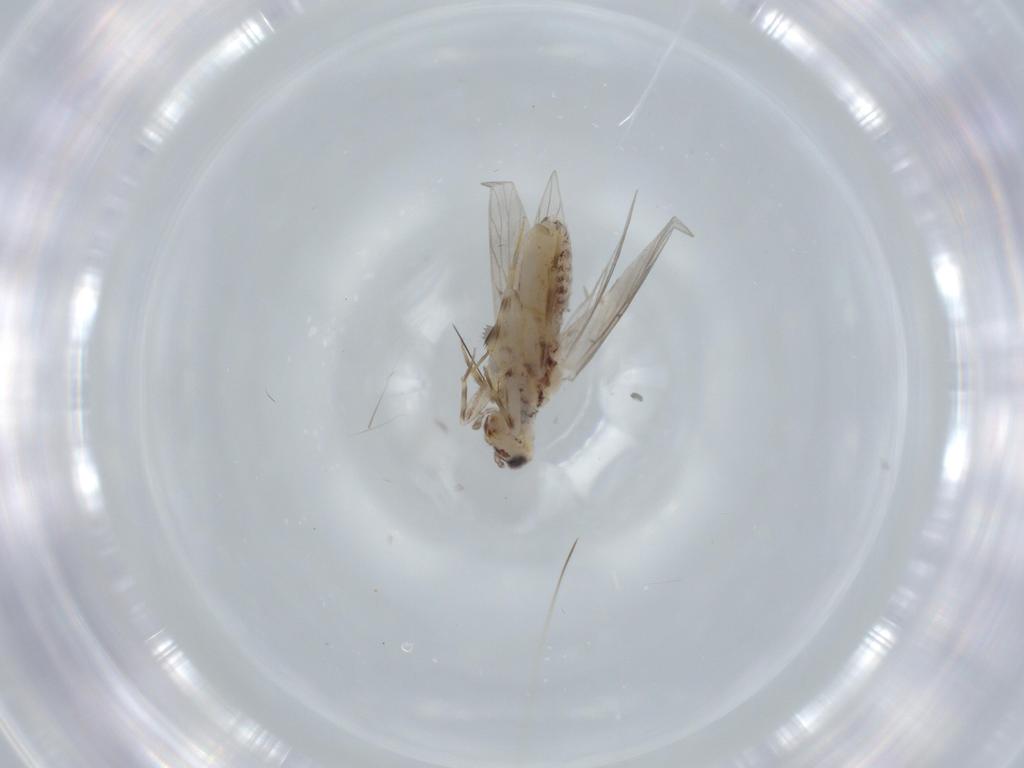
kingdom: Animalia
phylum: Arthropoda
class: Insecta
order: Psocodea
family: Lepidopsocidae
